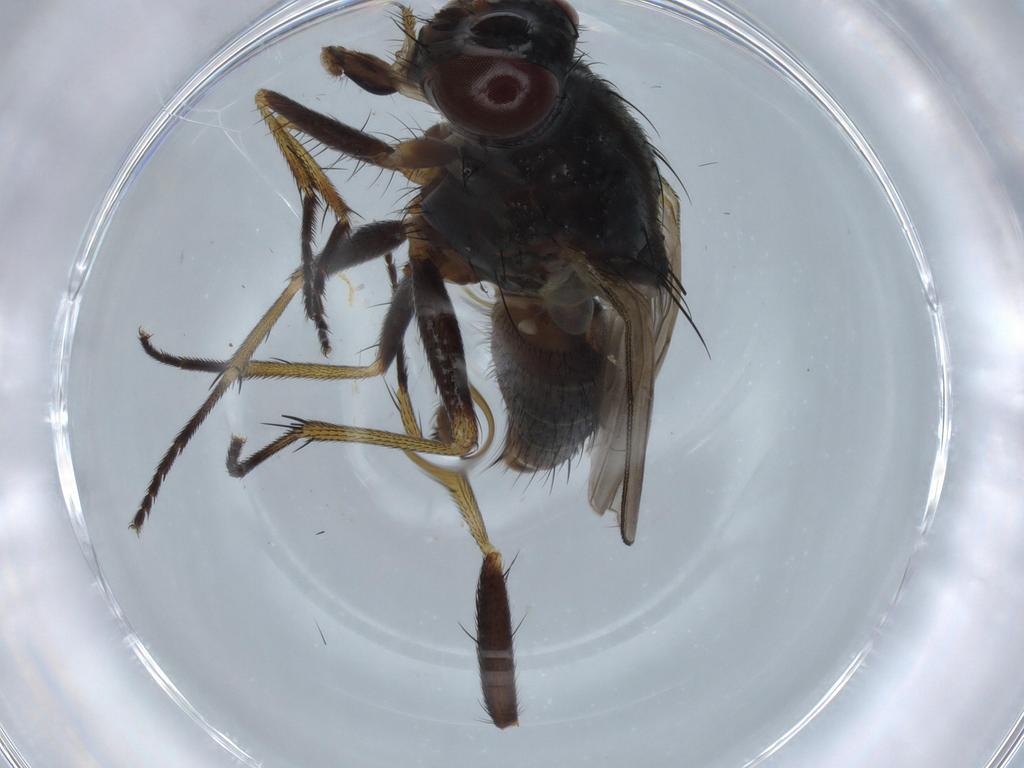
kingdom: Animalia
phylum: Arthropoda
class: Insecta
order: Diptera
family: Muscidae
